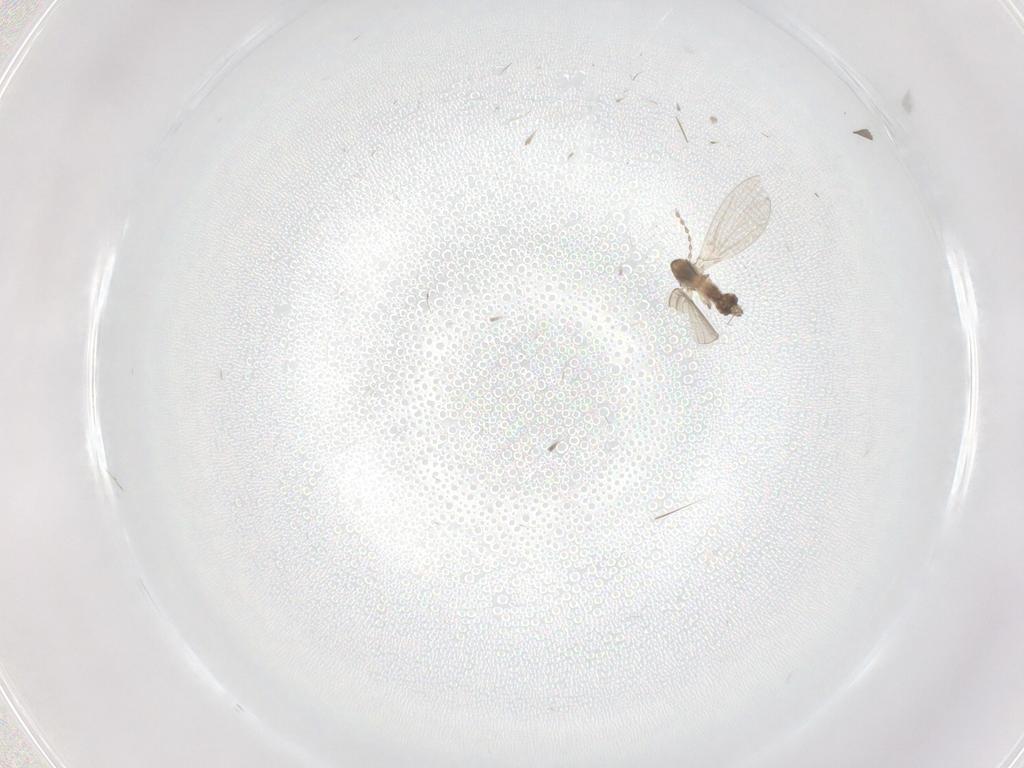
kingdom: Animalia
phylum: Arthropoda
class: Insecta
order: Diptera
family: Psychodidae
